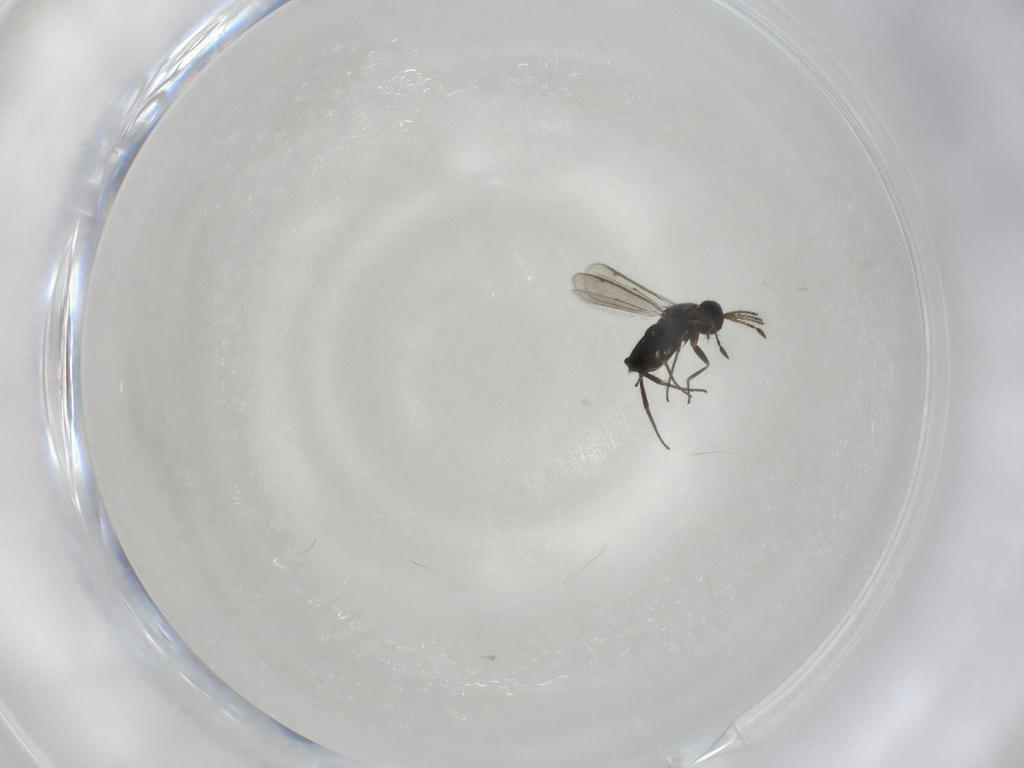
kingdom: Animalia
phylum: Arthropoda
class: Insecta
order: Hymenoptera
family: Eulophidae
